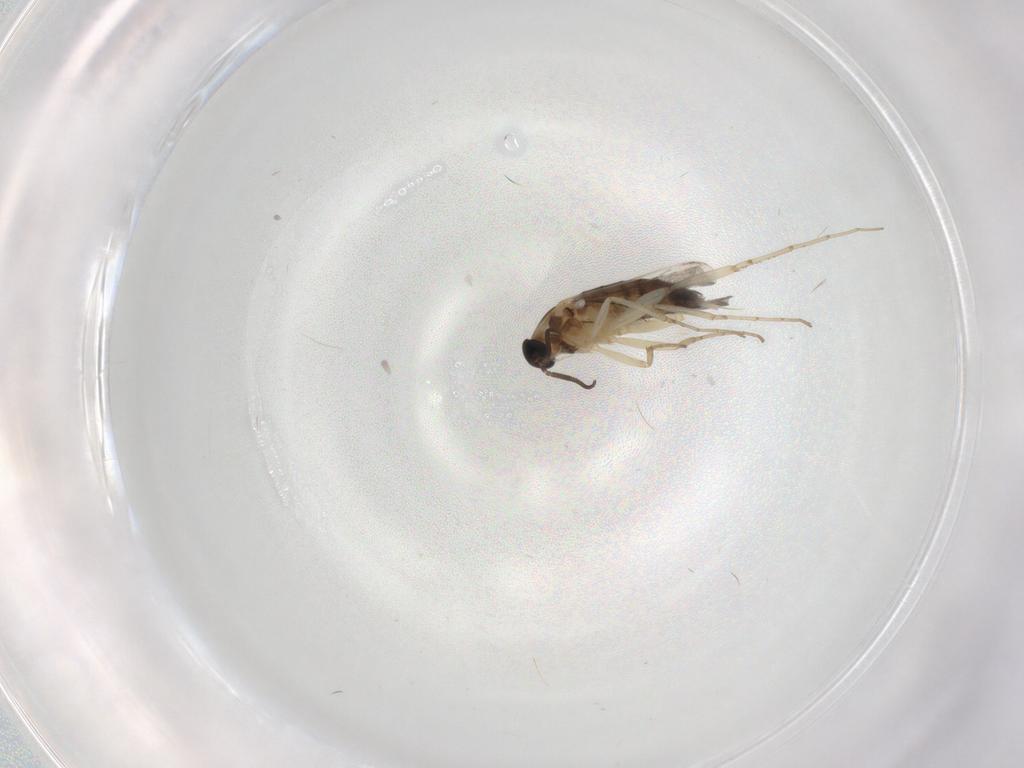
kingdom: Animalia
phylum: Arthropoda
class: Insecta
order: Diptera
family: Cecidomyiidae
